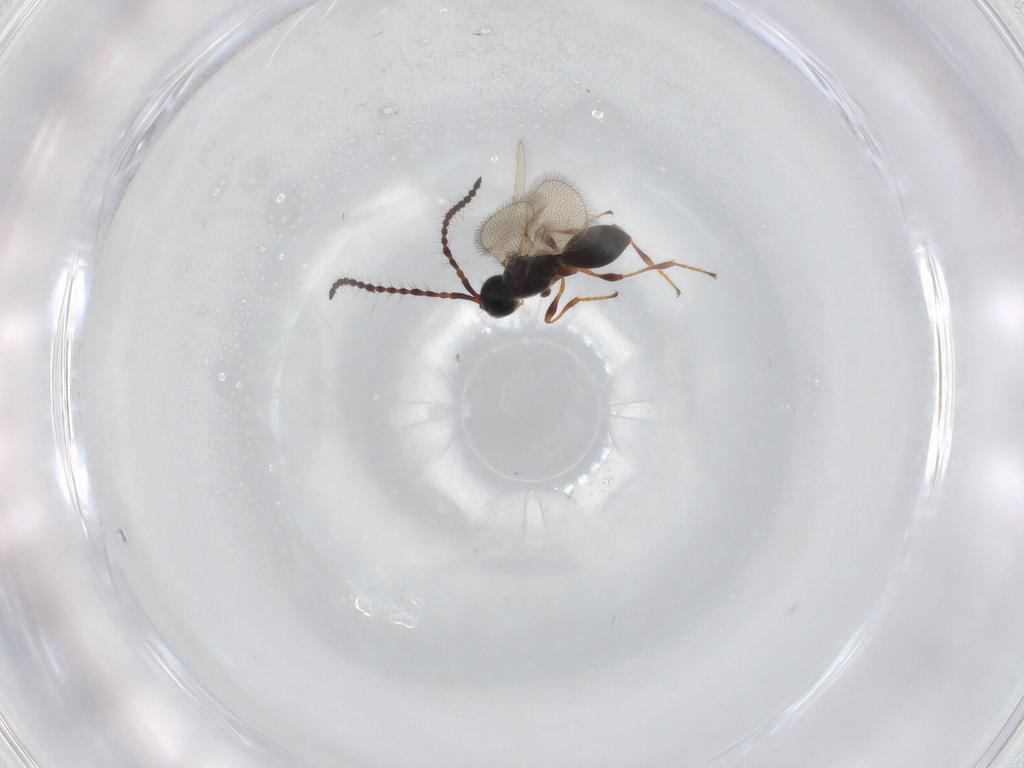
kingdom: Animalia
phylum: Arthropoda
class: Insecta
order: Hymenoptera
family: Diapriidae
